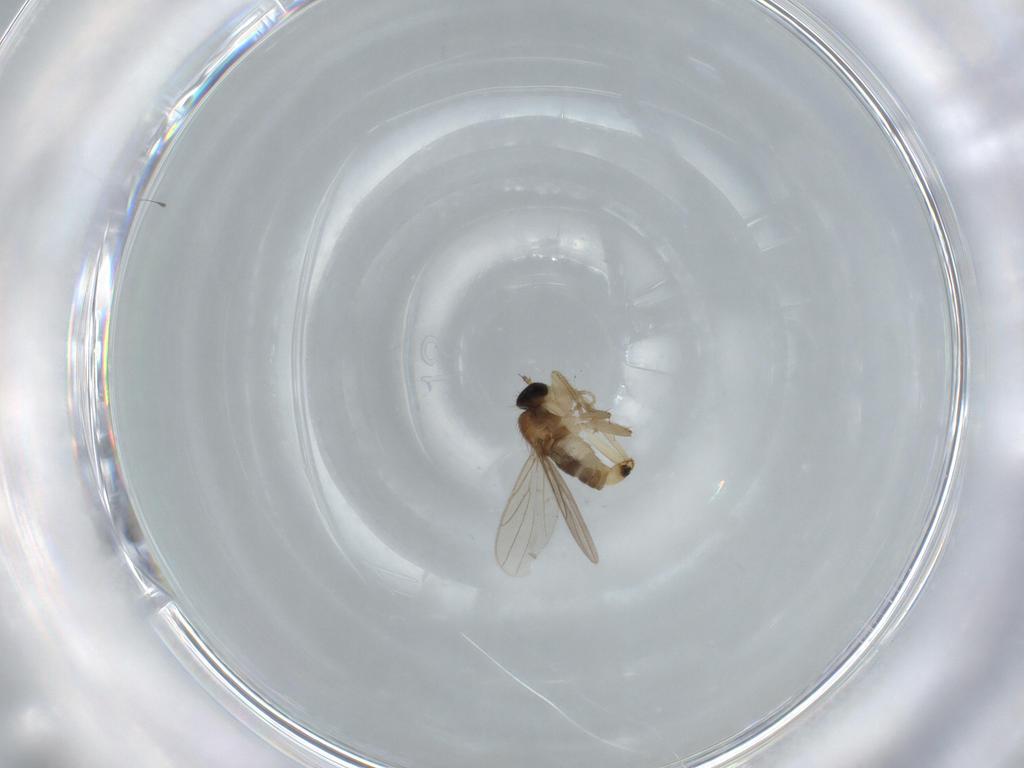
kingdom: Animalia
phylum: Arthropoda
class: Insecta
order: Diptera
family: Hybotidae
